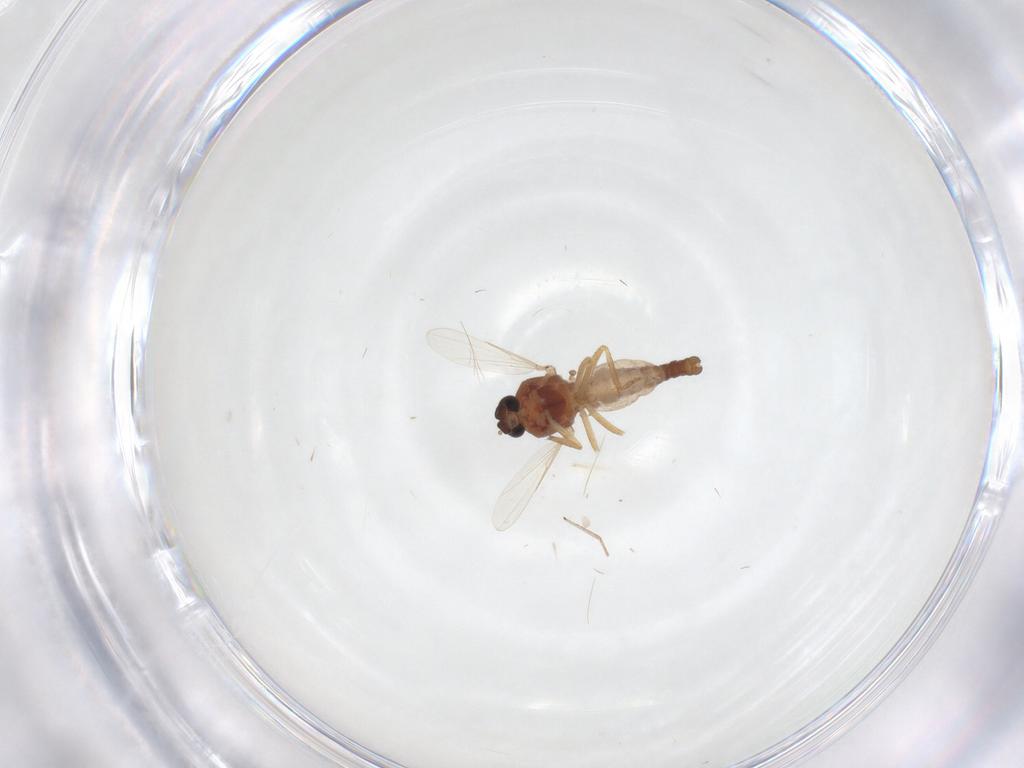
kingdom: Animalia
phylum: Arthropoda
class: Insecta
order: Diptera
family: Ceratopogonidae
